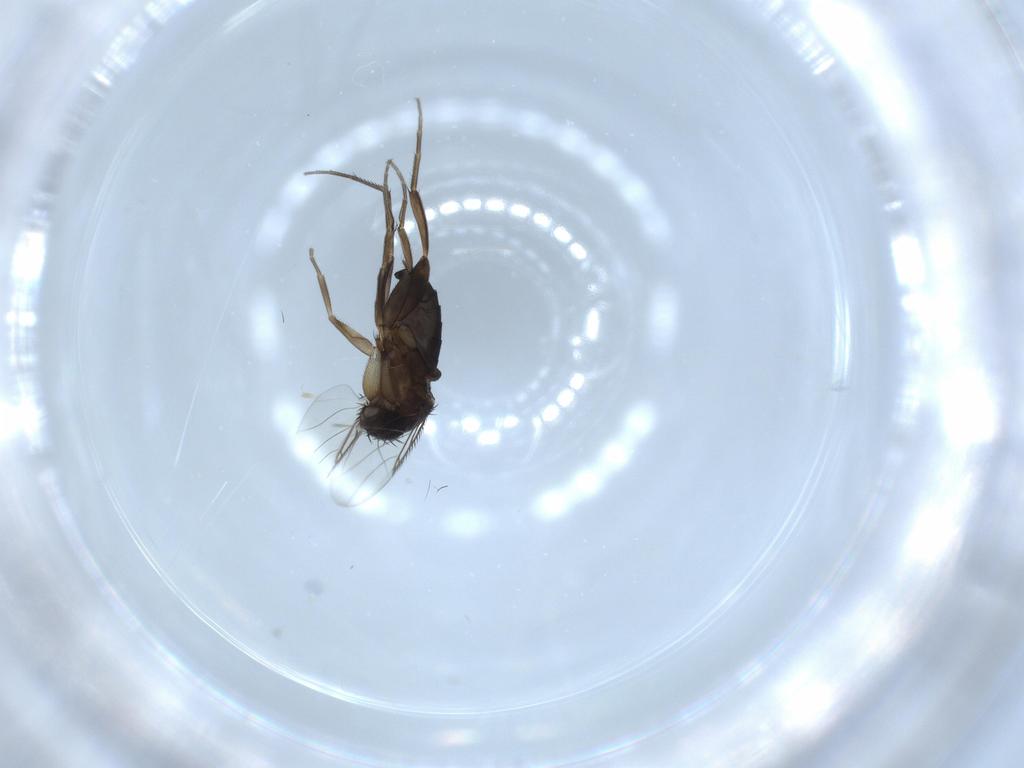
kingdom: Animalia
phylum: Arthropoda
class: Insecta
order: Diptera
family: Phoridae
